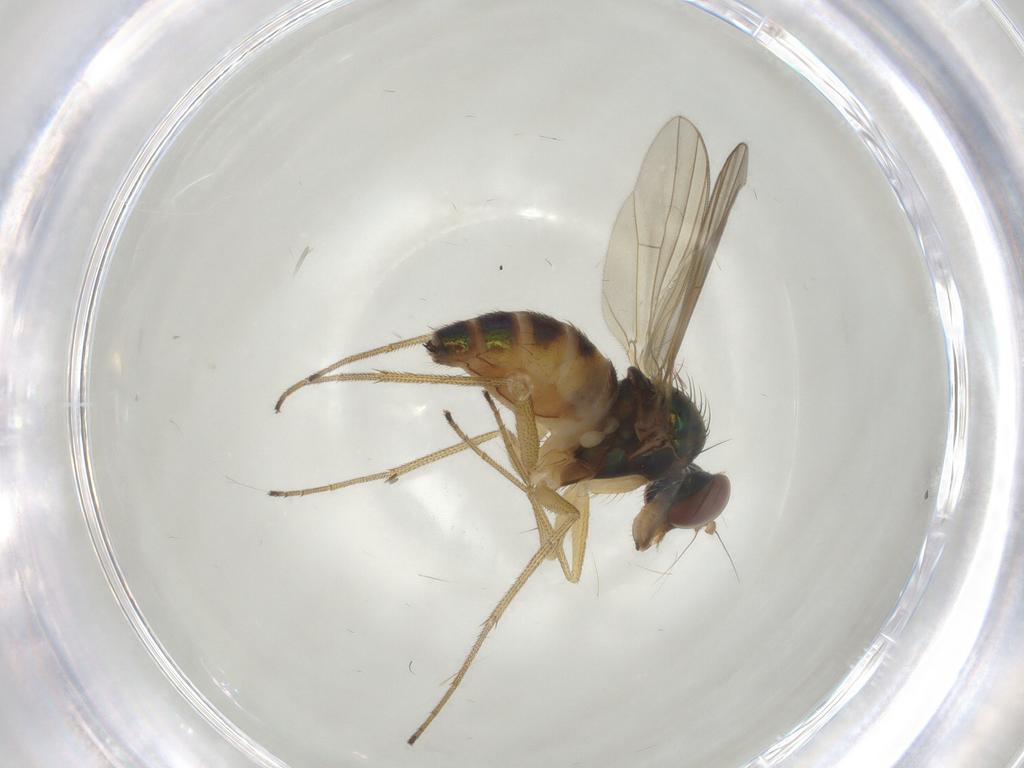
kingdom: Animalia
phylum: Arthropoda
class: Insecta
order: Diptera
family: Dolichopodidae
